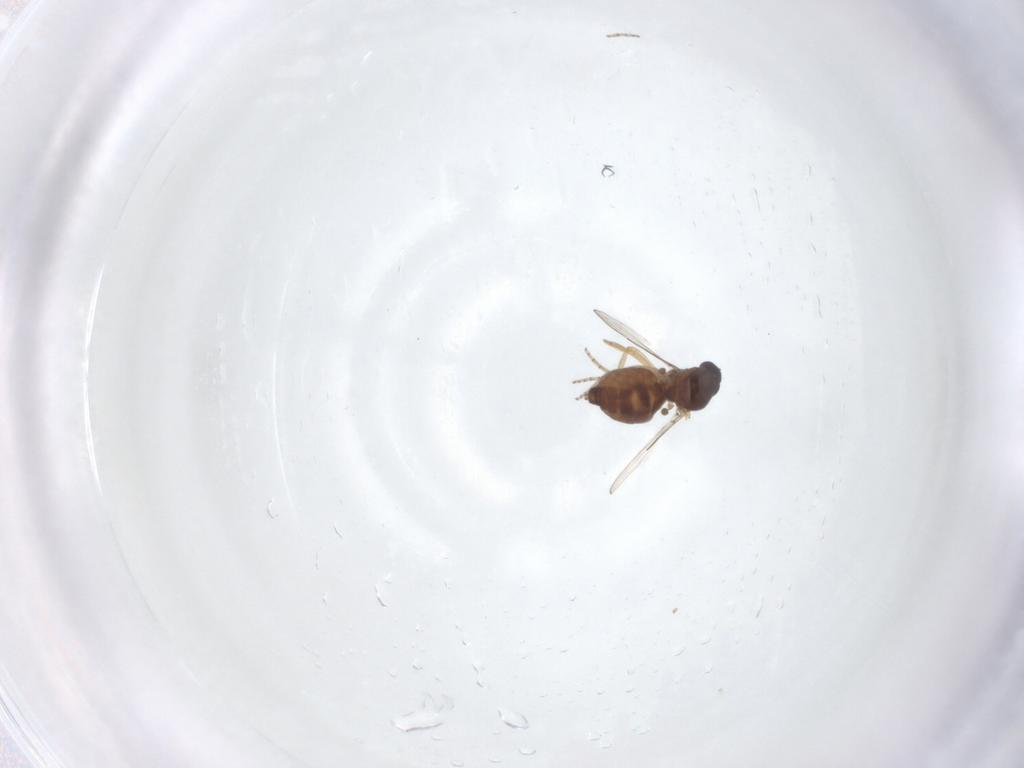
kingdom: Animalia
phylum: Arthropoda
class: Insecta
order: Diptera
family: Ceratopogonidae
